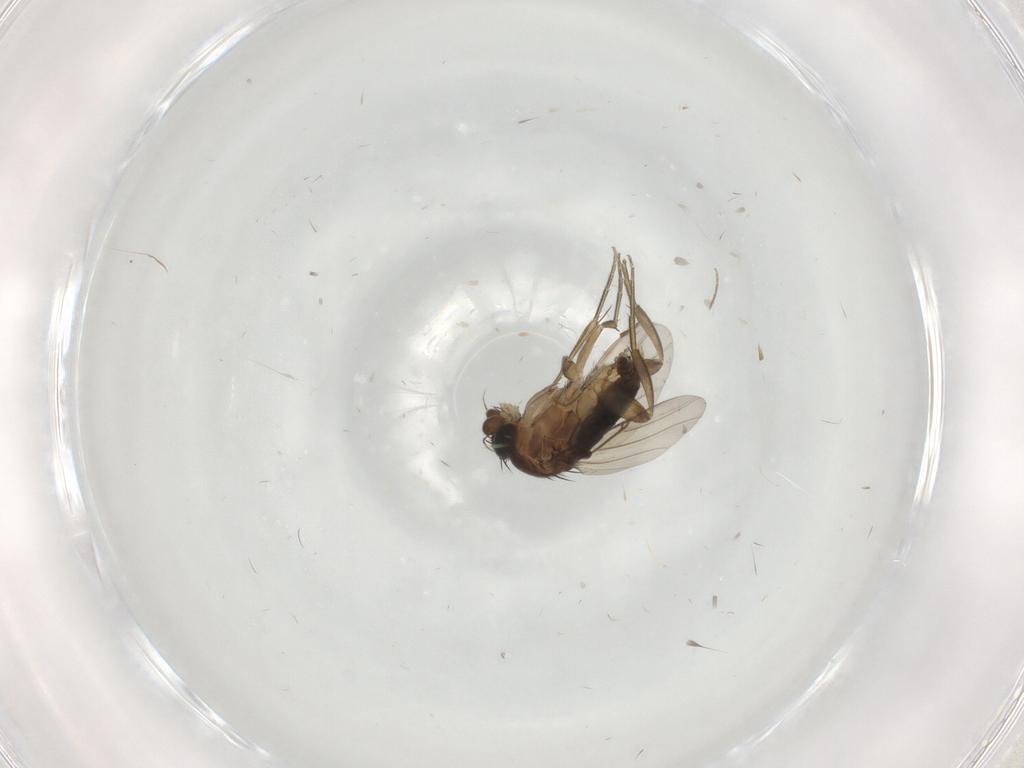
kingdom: Animalia
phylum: Arthropoda
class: Insecta
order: Diptera
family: Phoridae
